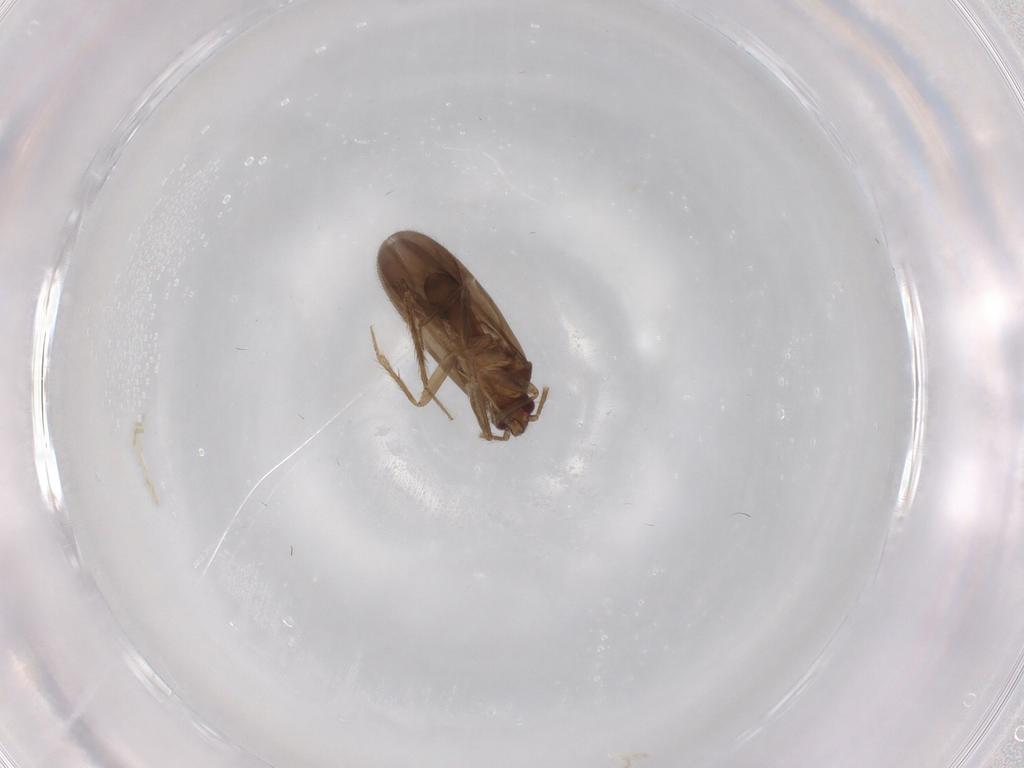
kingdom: Animalia
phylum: Arthropoda
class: Insecta
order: Hemiptera
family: Ceratocombidae
